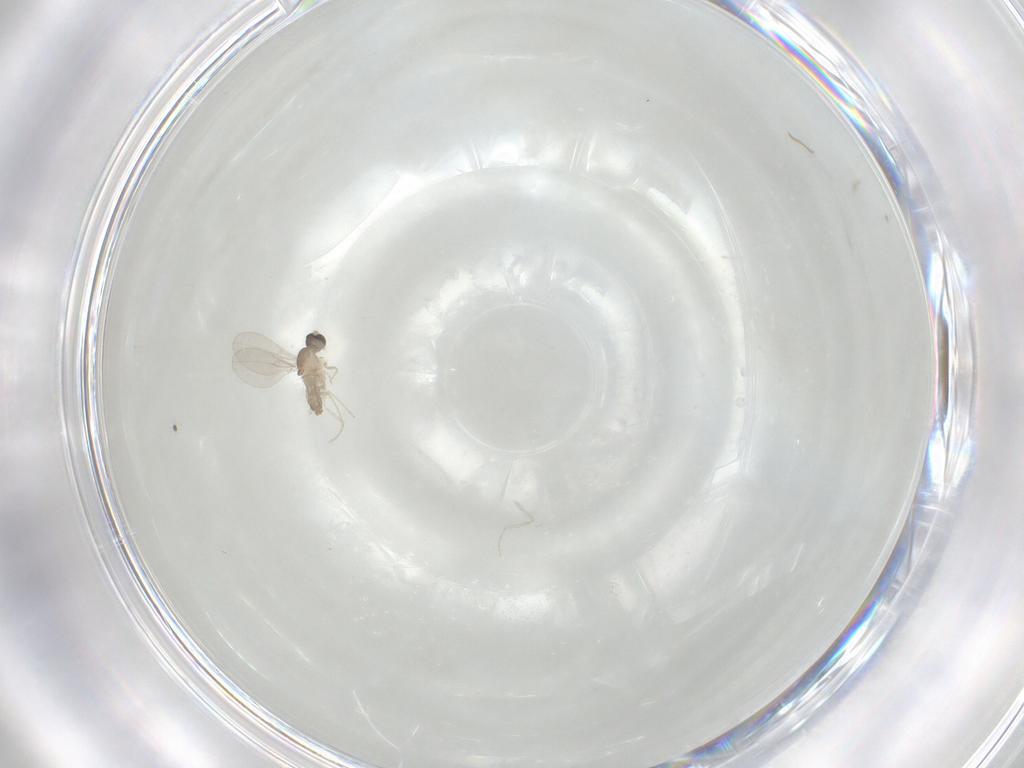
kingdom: Animalia
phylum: Arthropoda
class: Insecta
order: Diptera
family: Cecidomyiidae
